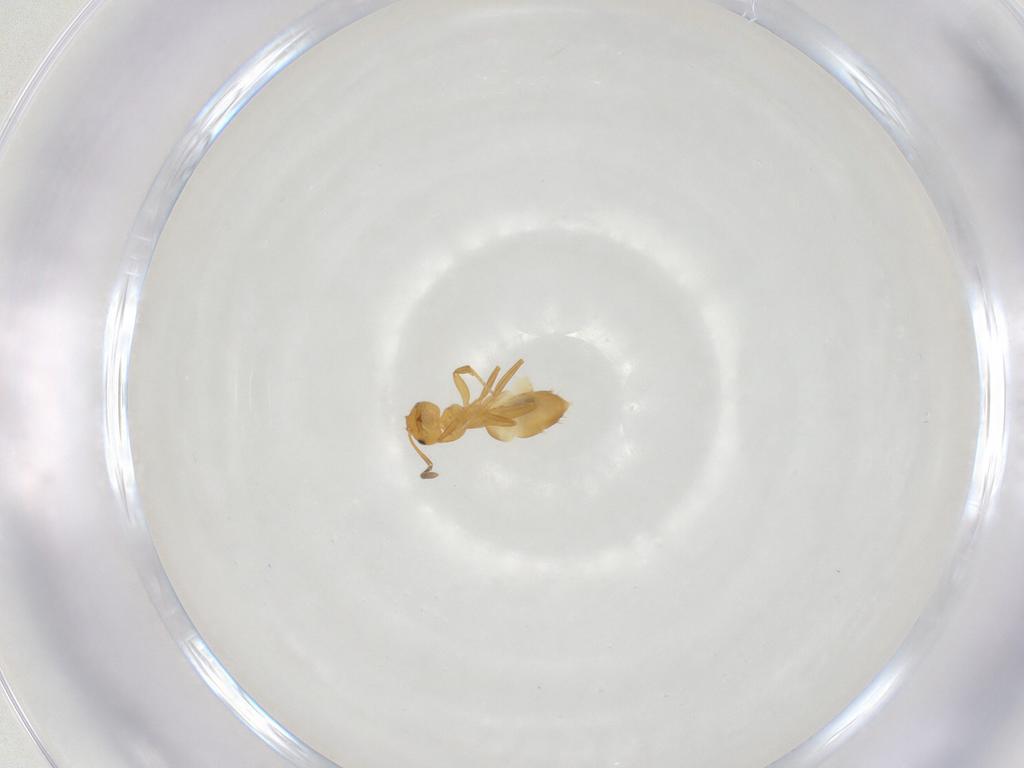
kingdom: Animalia
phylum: Arthropoda
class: Insecta
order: Hymenoptera
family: Formicidae
